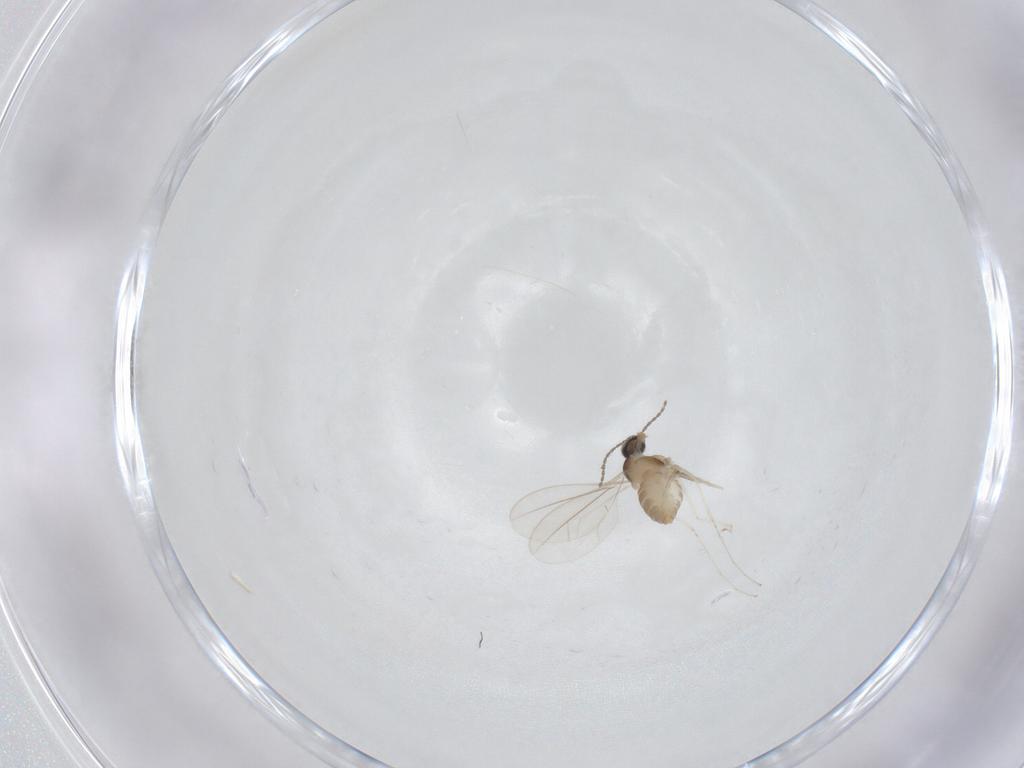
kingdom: Animalia
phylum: Arthropoda
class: Insecta
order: Diptera
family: Cecidomyiidae
